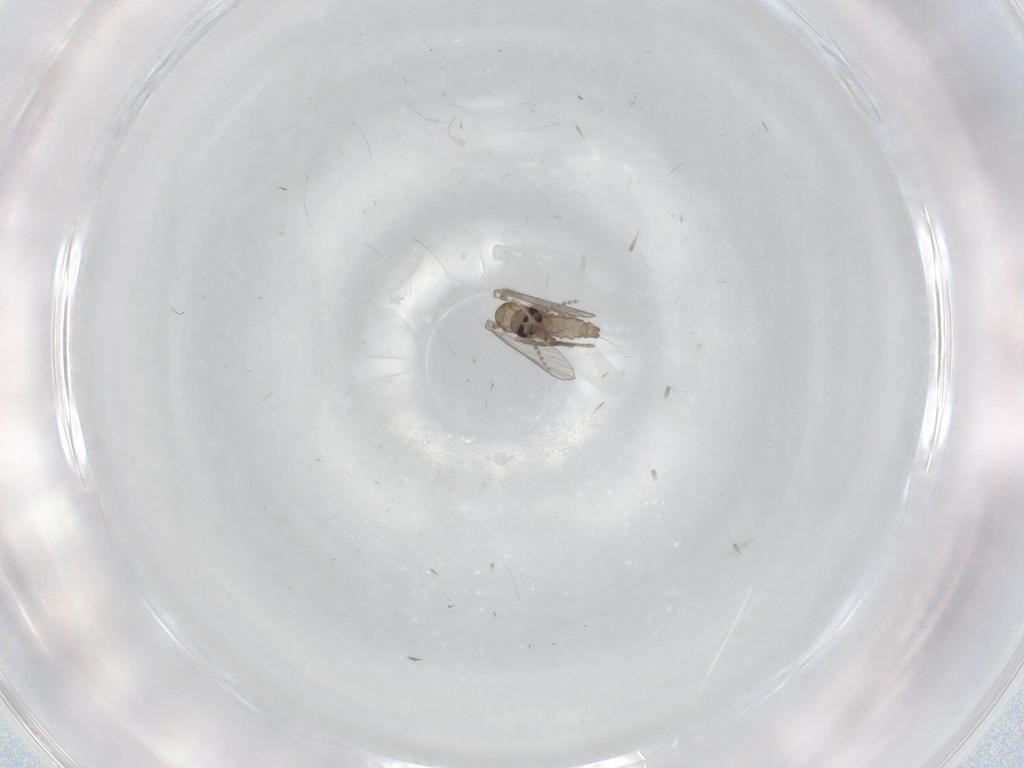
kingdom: Animalia
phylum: Arthropoda
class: Insecta
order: Diptera
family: Psychodidae
